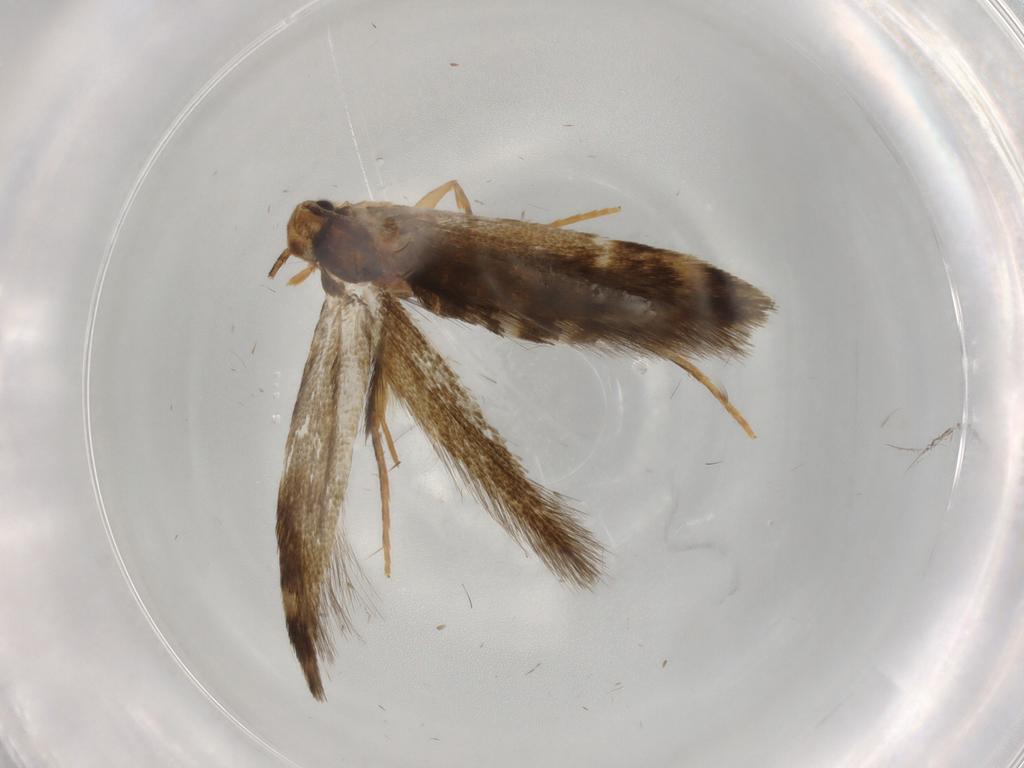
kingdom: Animalia
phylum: Arthropoda
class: Insecta
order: Lepidoptera
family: Tineidae
